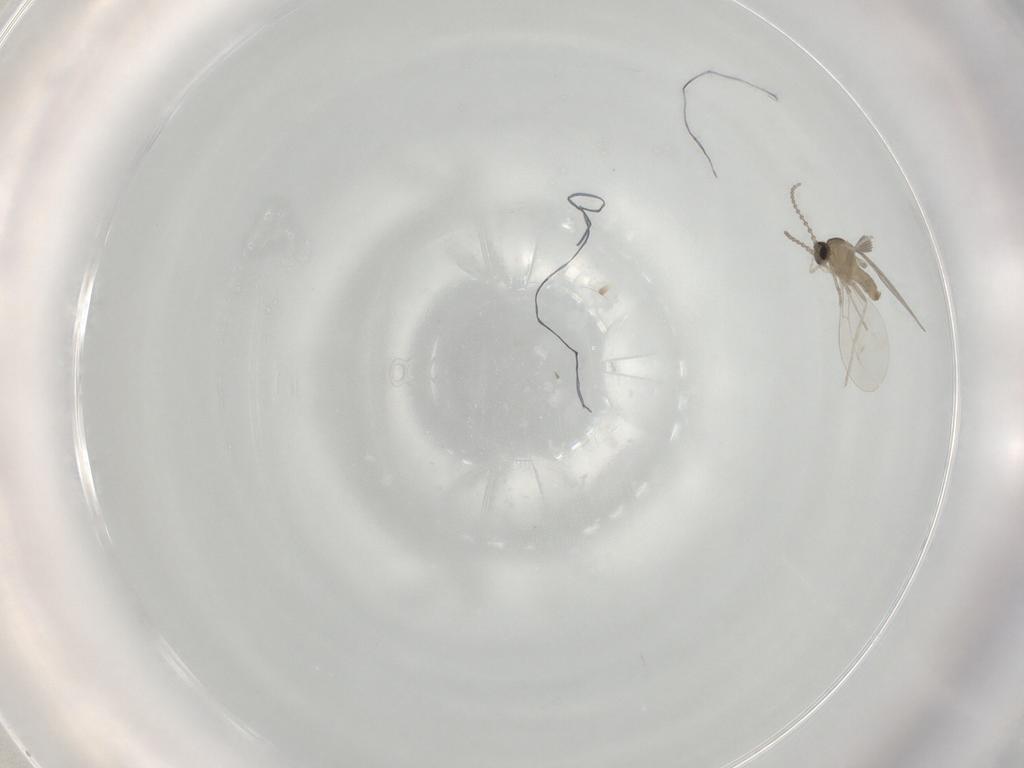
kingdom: Animalia
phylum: Arthropoda
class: Insecta
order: Diptera
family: Cecidomyiidae
